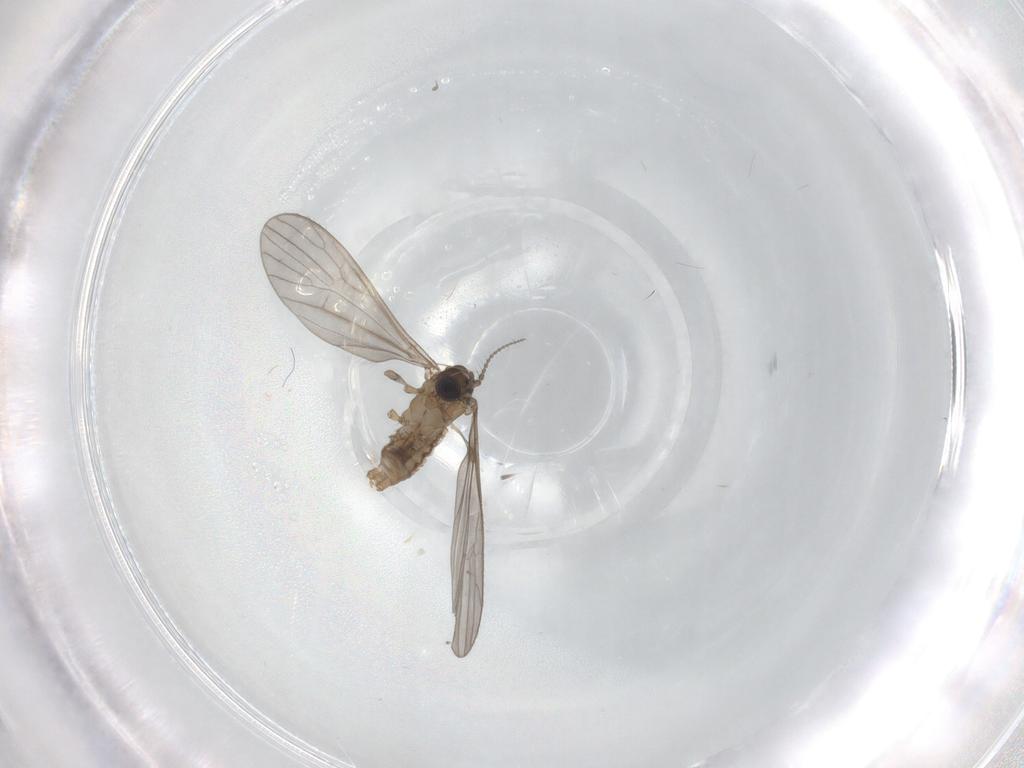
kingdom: Animalia
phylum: Arthropoda
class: Insecta
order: Diptera
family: Limoniidae
